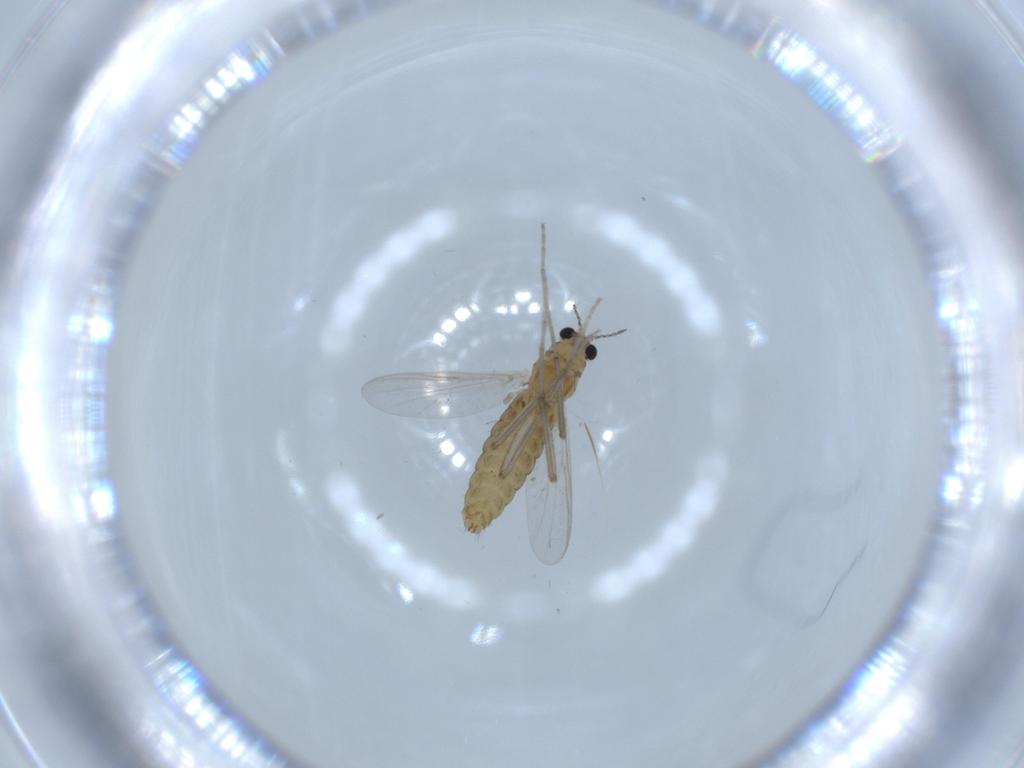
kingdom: Animalia
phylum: Arthropoda
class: Insecta
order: Diptera
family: Chironomidae
